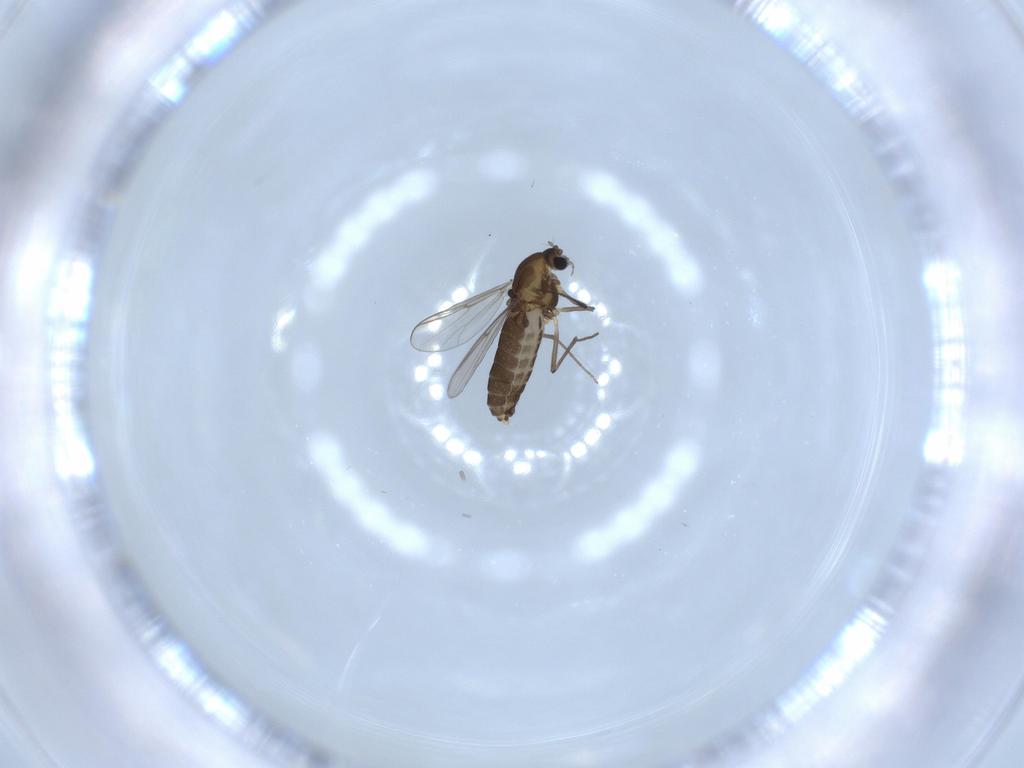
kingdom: Animalia
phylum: Arthropoda
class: Insecta
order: Diptera
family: Chironomidae
